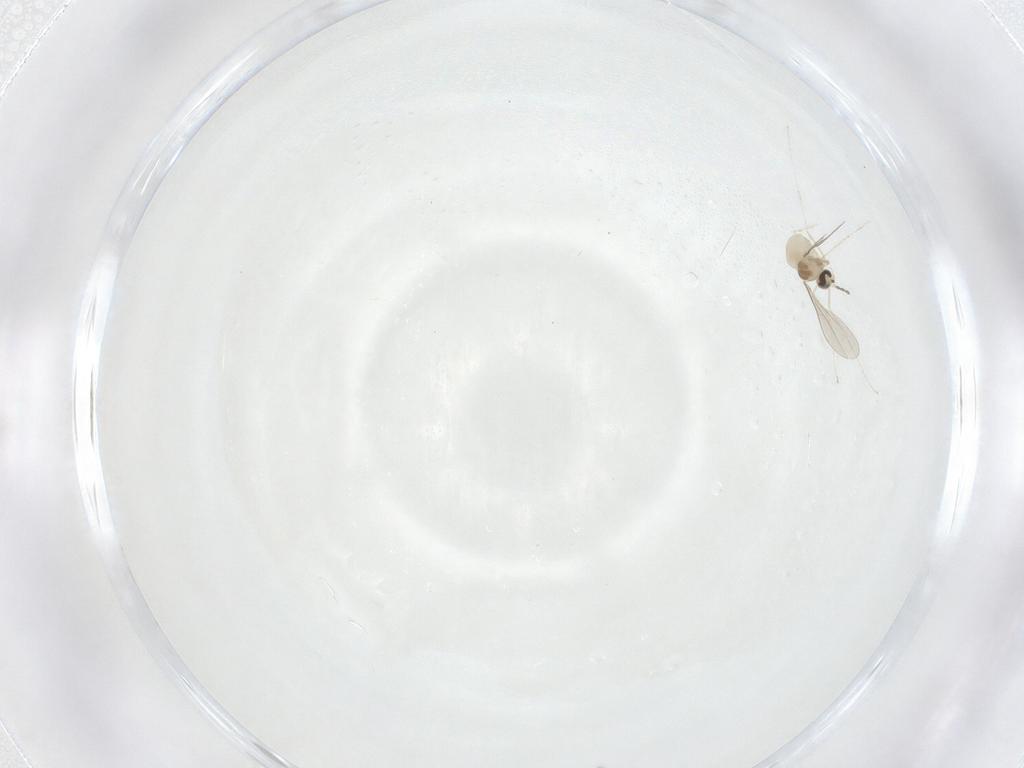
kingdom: Animalia
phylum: Arthropoda
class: Insecta
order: Diptera
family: Phoridae
